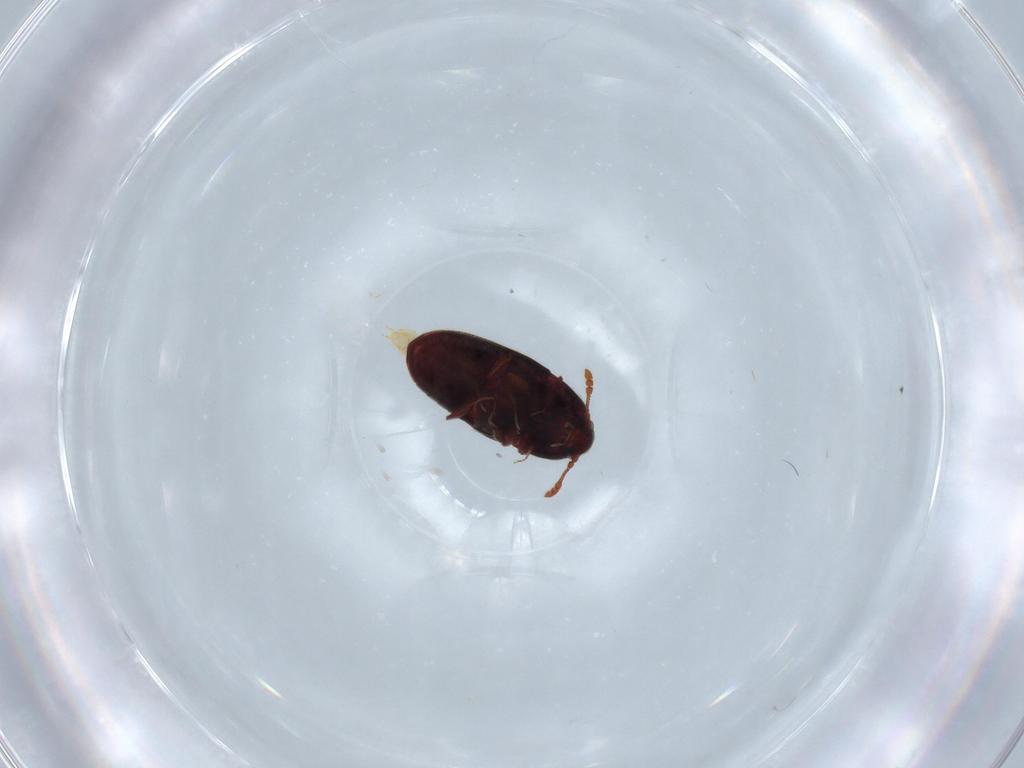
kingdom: Animalia
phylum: Arthropoda
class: Insecta
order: Coleoptera
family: Throscidae
